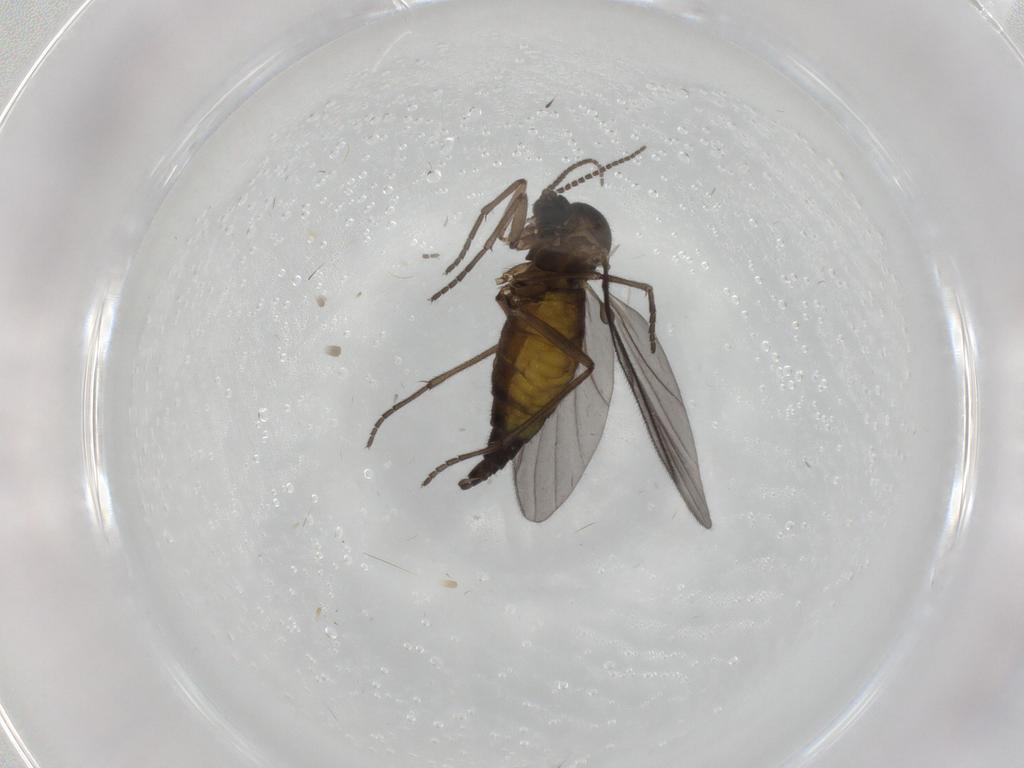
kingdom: Animalia
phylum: Arthropoda
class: Insecta
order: Diptera
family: Sciaridae
